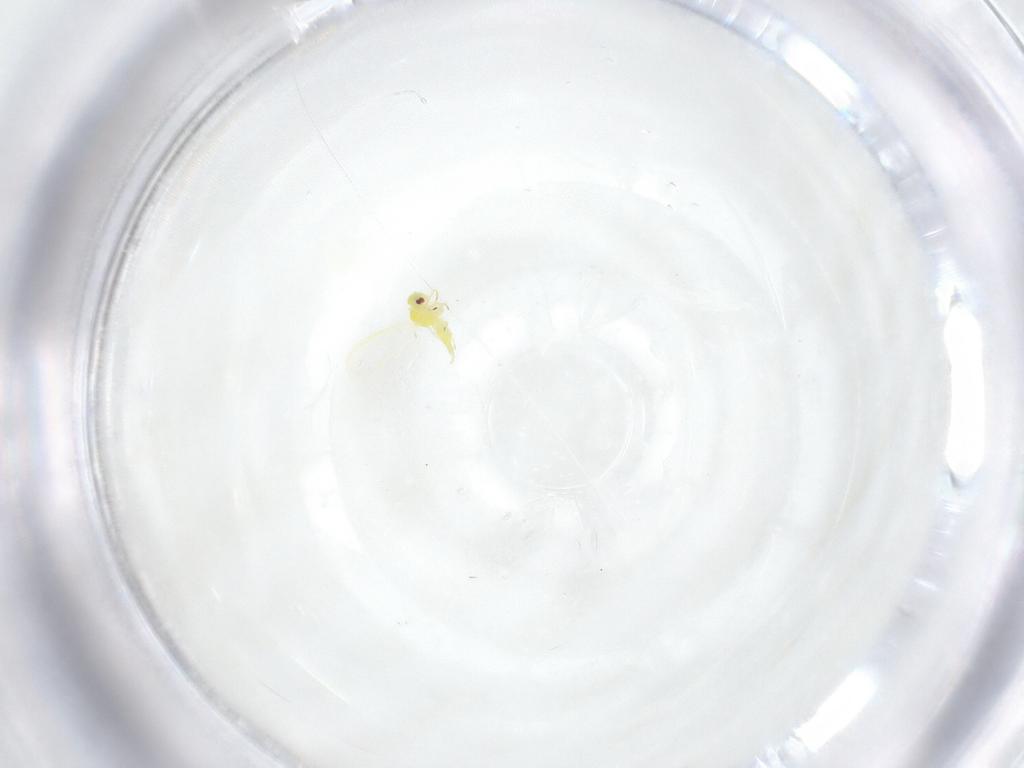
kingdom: Animalia
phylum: Arthropoda
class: Insecta
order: Hemiptera
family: Aleyrodidae
